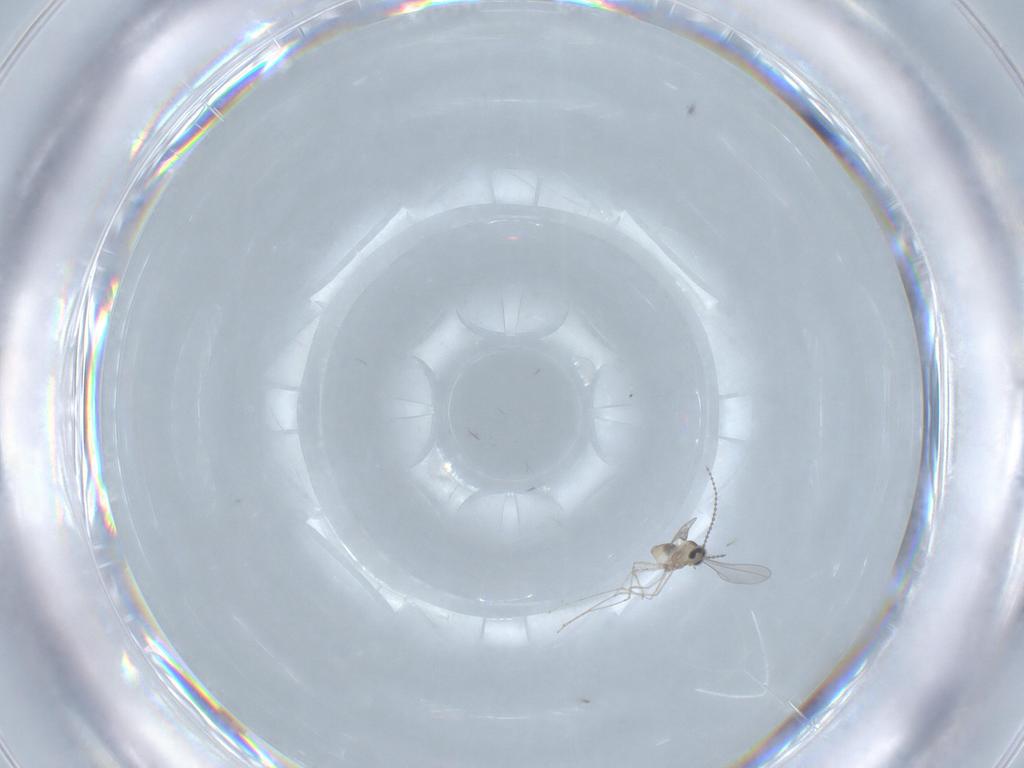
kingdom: Animalia
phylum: Arthropoda
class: Insecta
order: Diptera
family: Cecidomyiidae
